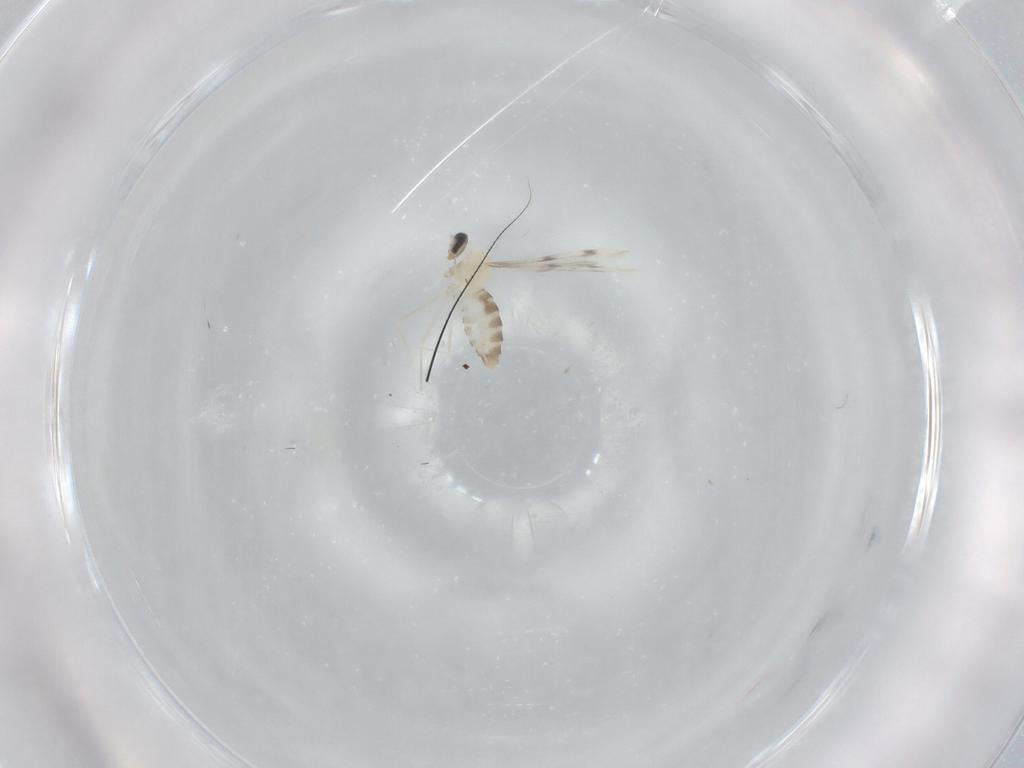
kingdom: Animalia
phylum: Arthropoda
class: Insecta
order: Diptera
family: Cecidomyiidae
